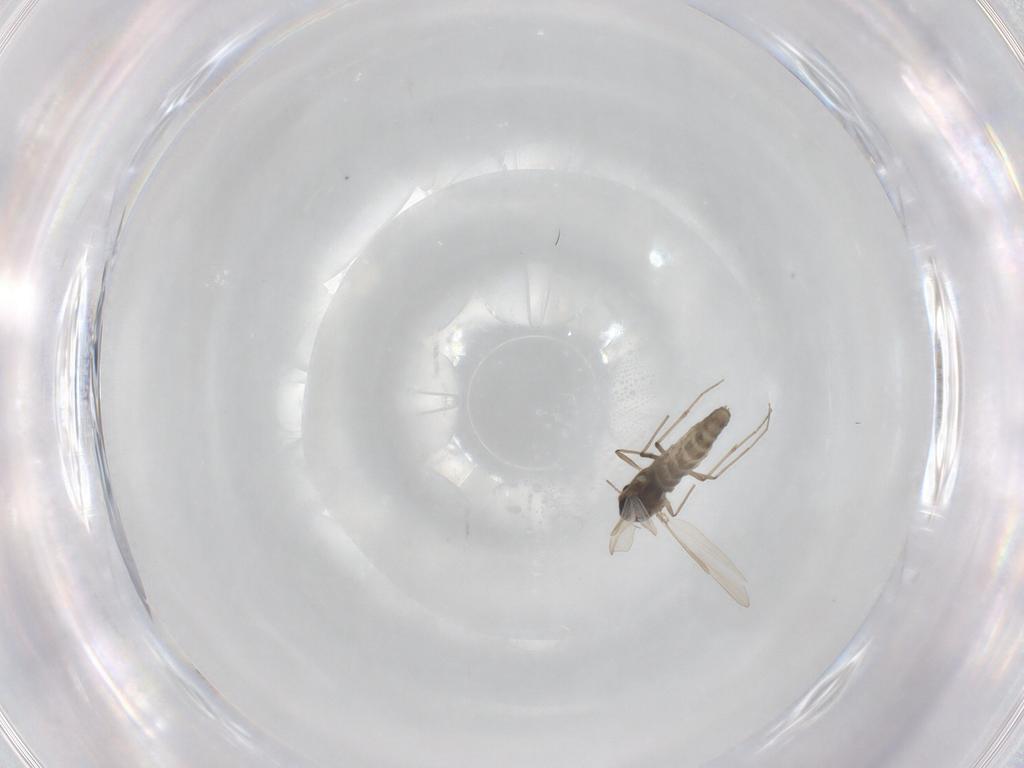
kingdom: Animalia
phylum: Arthropoda
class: Insecta
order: Diptera
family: Chironomidae
